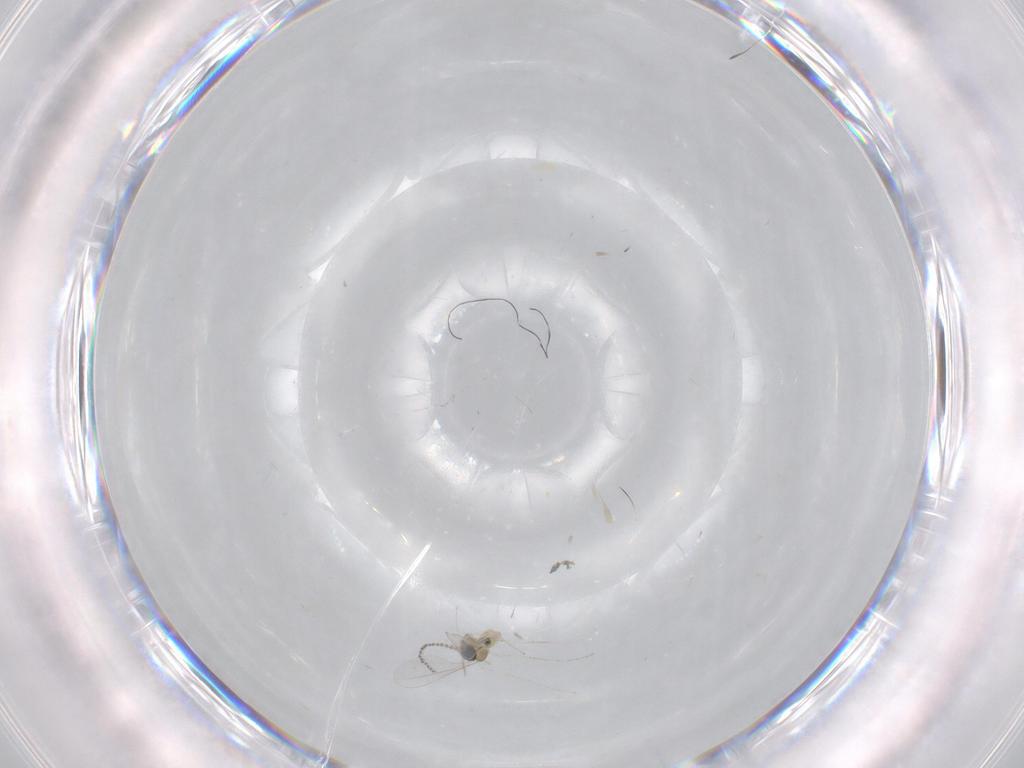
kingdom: Animalia
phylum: Arthropoda
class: Insecta
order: Diptera
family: Cecidomyiidae
